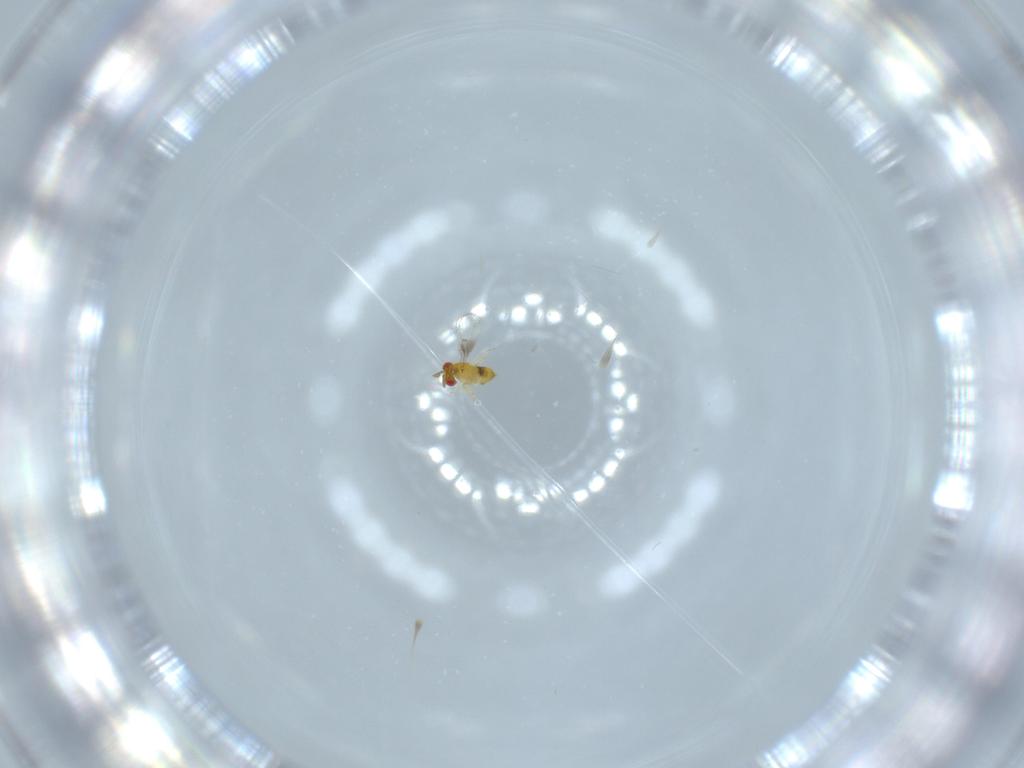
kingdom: Animalia
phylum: Arthropoda
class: Insecta
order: Hymenoptera
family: Trichogrammatidae
